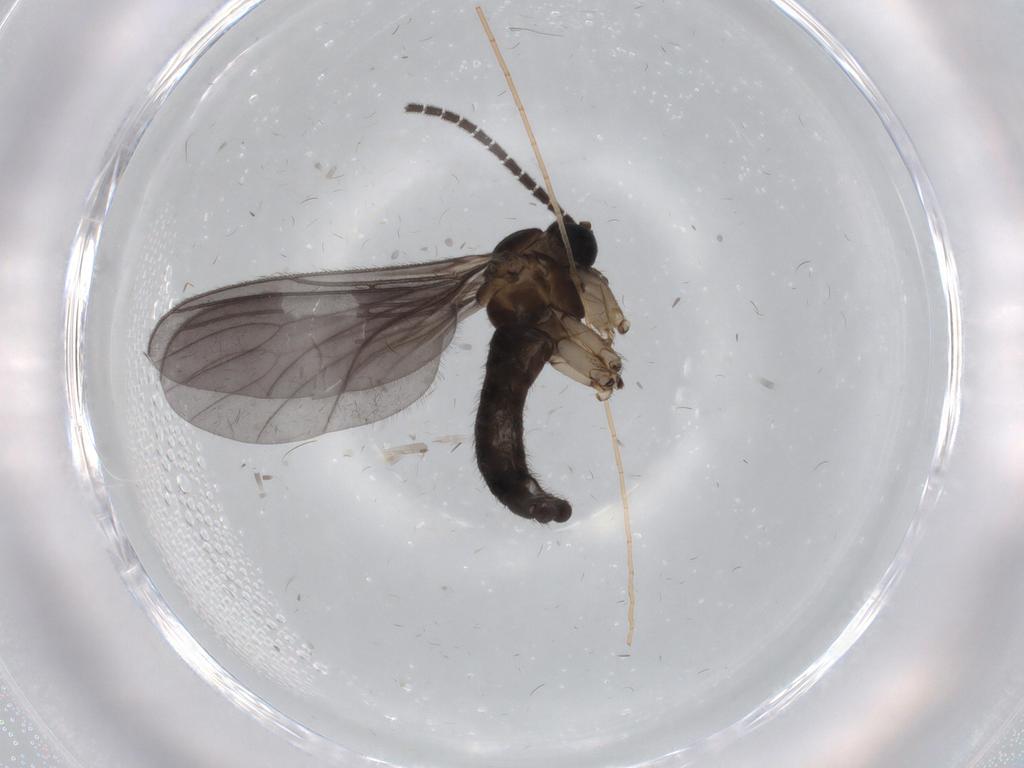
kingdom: Animalia
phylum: Arthropoda
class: Insecta
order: Diptera
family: Sciaridae
